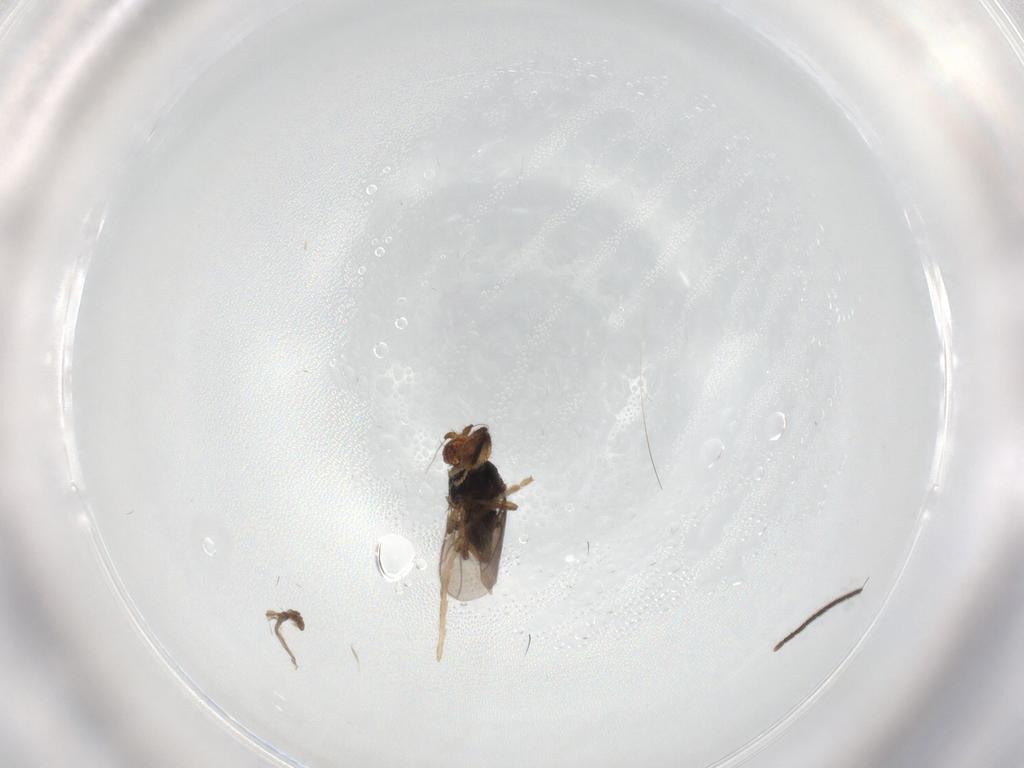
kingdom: Animalia
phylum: Arthropoda
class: Insecta
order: Diptera
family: Sphaeroceridae
